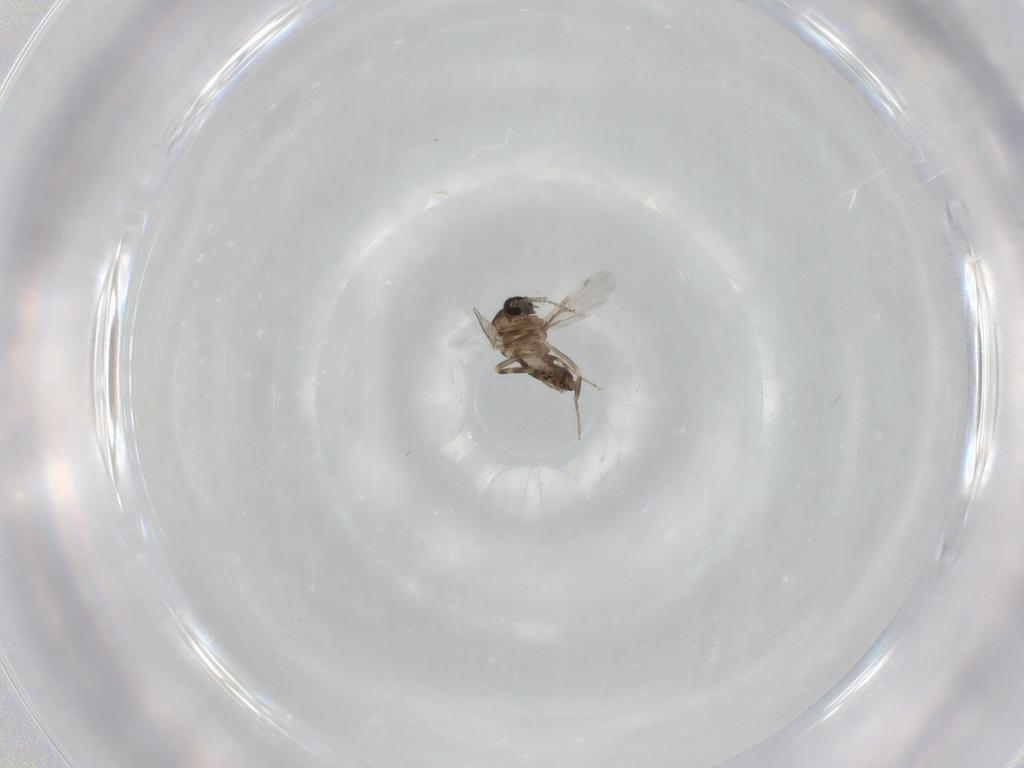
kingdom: Animalia
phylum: Arthropoda
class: Insecta
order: Diptera
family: Ceratopogonidae
